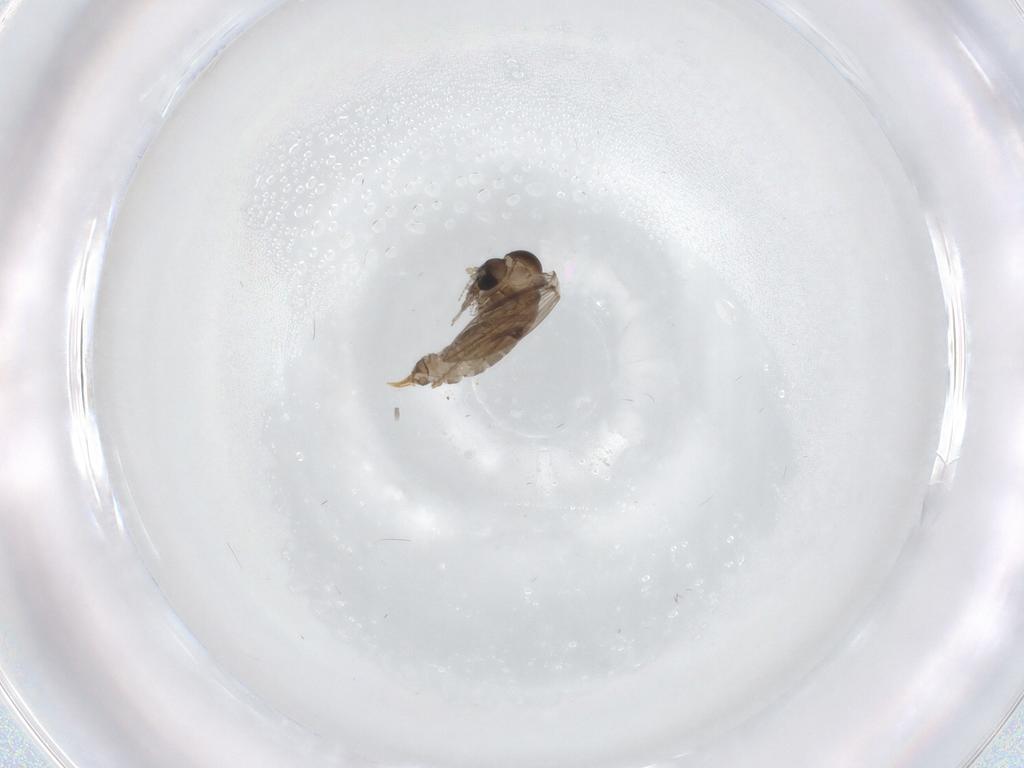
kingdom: Animalia
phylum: Arthropoda
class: Insecta
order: Diptera
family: Psychodidae
